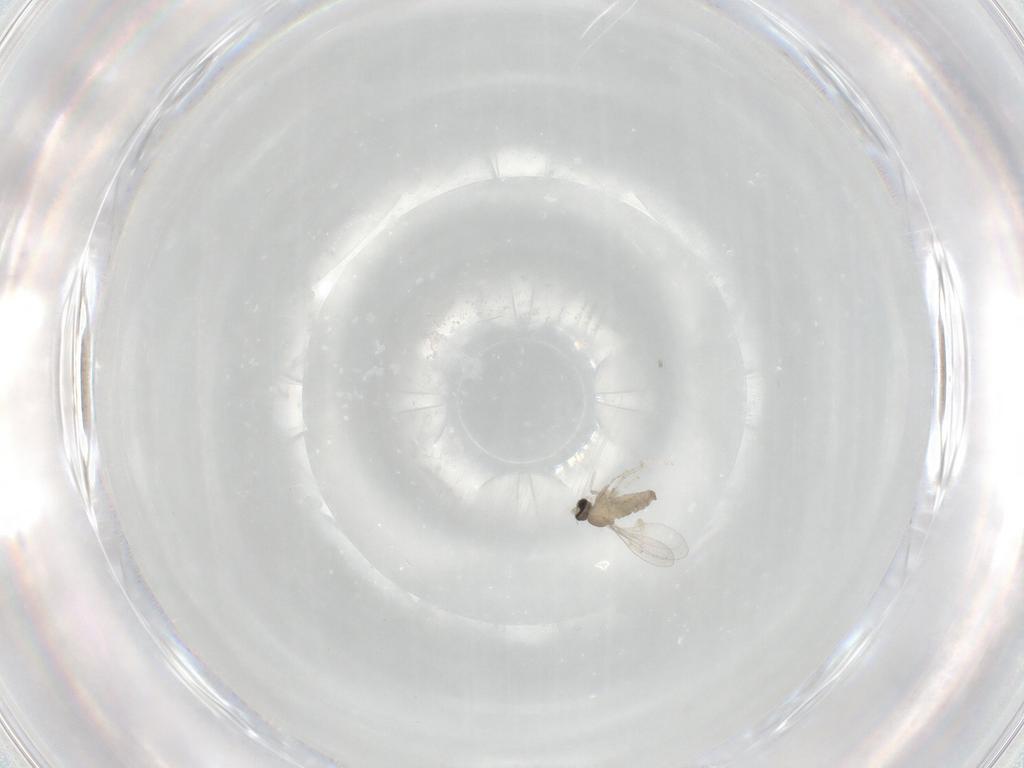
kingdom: Animalia
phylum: Arthropoda
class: Insecta
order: Diptera
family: Cecidomyiidae
